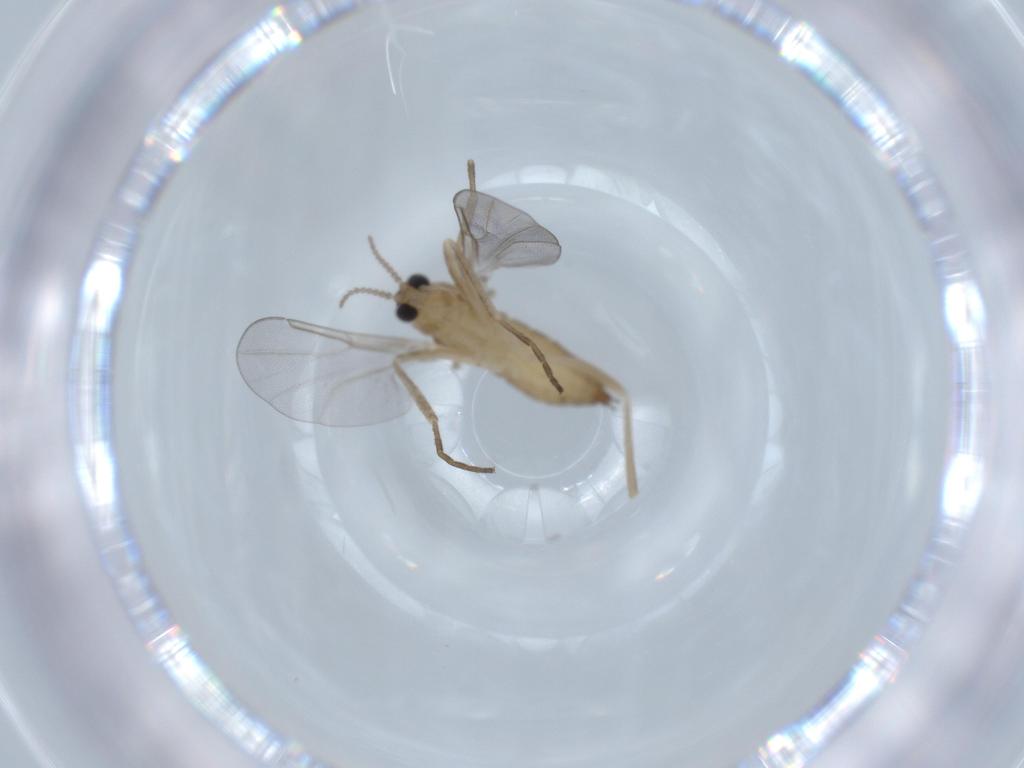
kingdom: Animalia
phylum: Arthropoda
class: Insecta
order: Diptera
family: Cecidomyiidae
